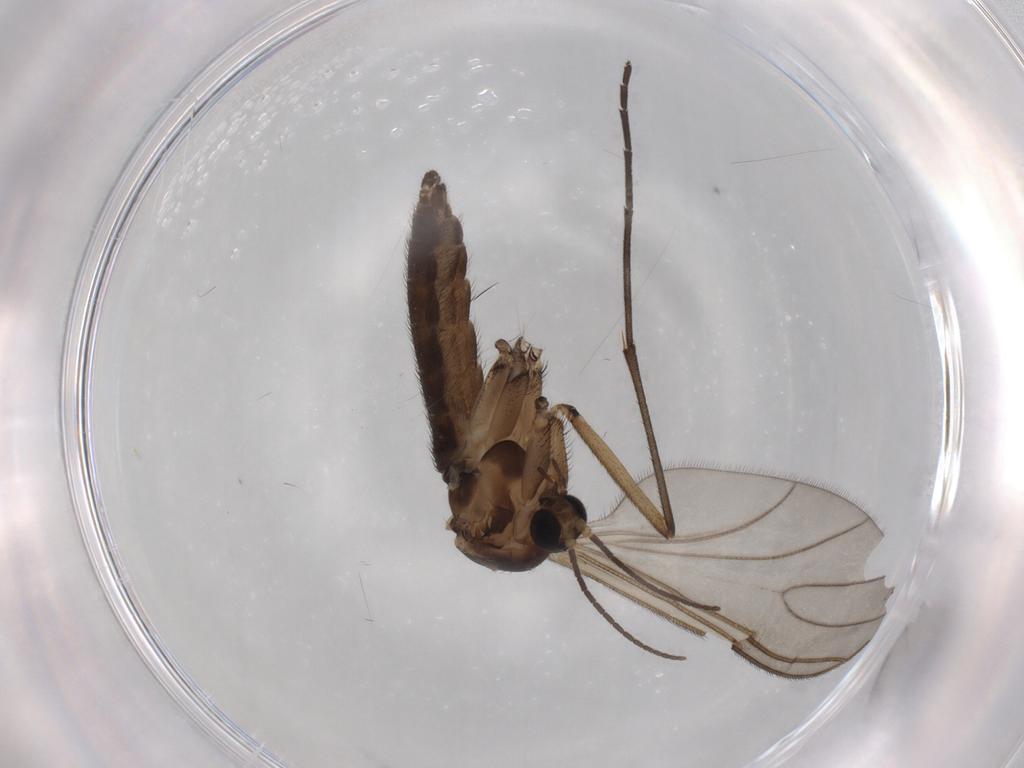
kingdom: Animalia
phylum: Arthropoda
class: Insecta
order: Diptera
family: Sciaridae
